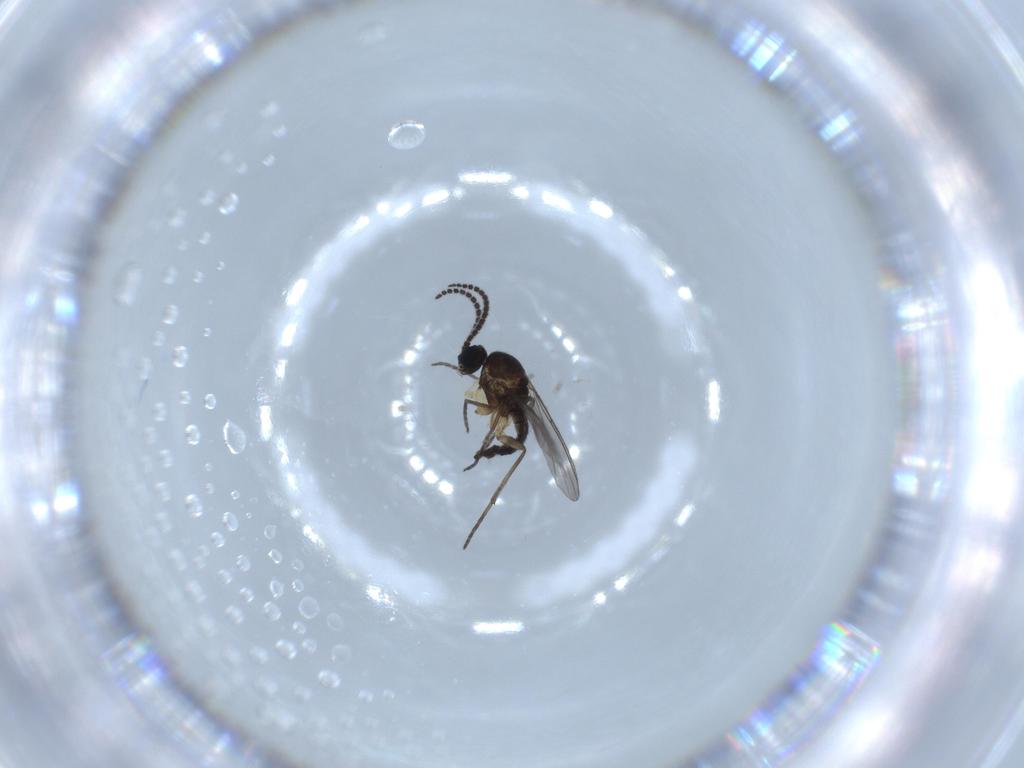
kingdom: Animalia
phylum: Arthropoda
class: Insecta
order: Diptera
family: Sciaridae
